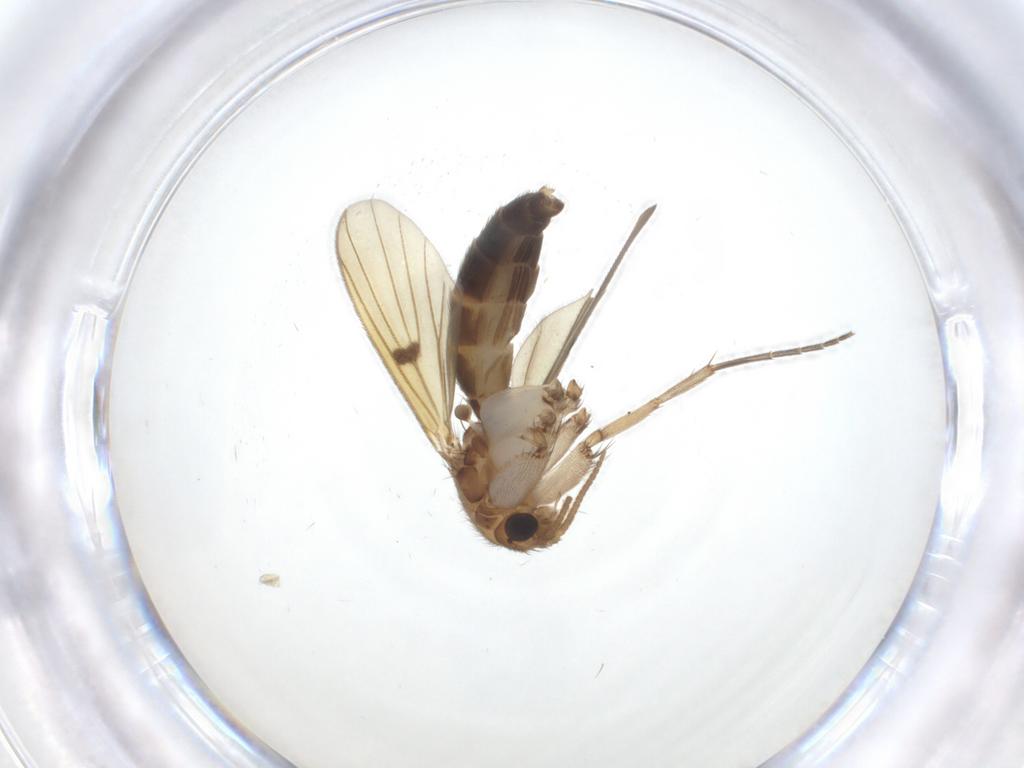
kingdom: Animalia
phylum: Arthropoda
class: Insecta
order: Diptera
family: Mycetophilidae
